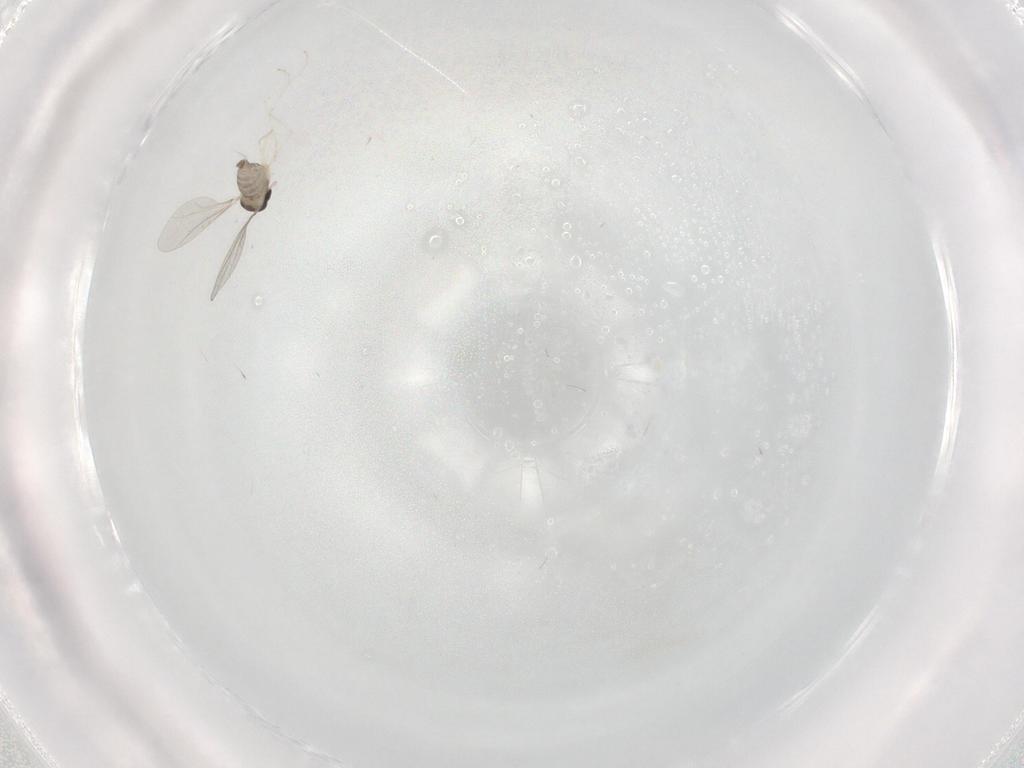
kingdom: Animalia
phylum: Arthropoda
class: Insecta
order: Diptera
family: Cecidomyiidae
